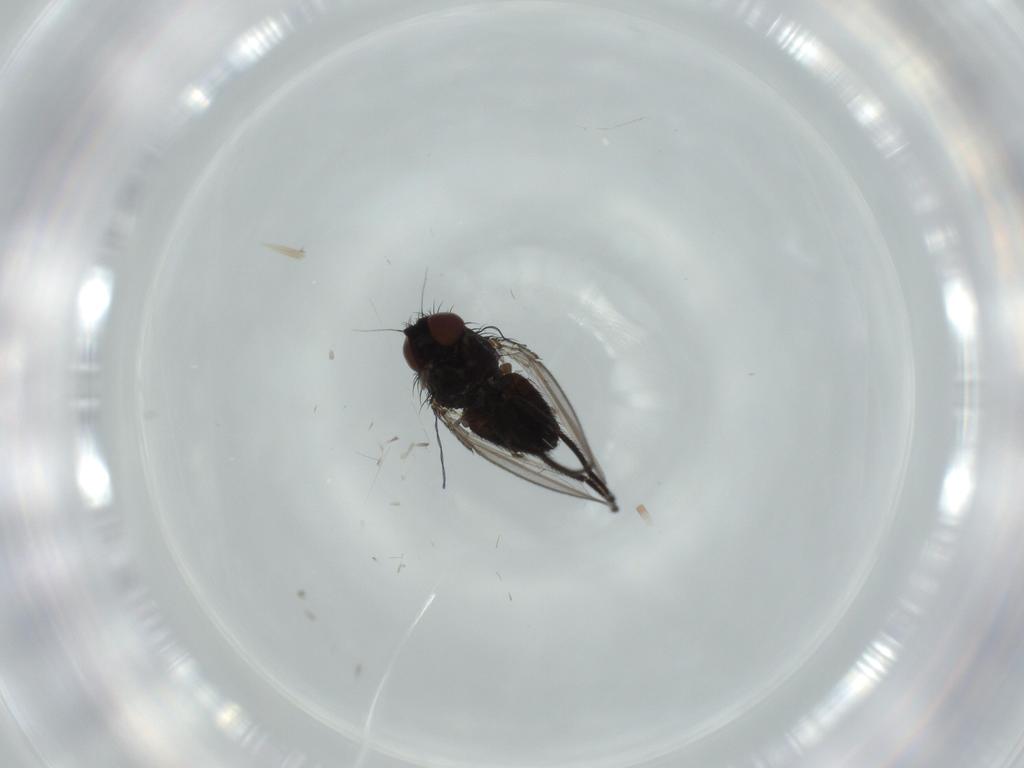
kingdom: Animalia
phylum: Arthropoda
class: Insecta
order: Diptera
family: Milichiidae
